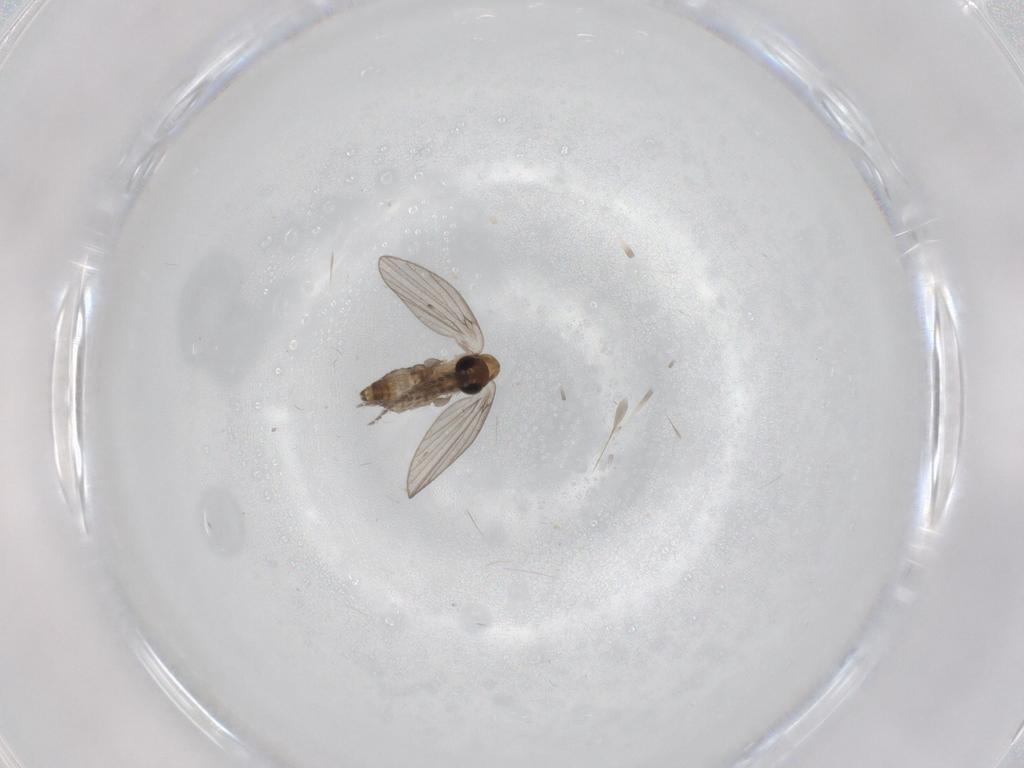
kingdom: Animalia
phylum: Arthropoda
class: Insecta
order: Diptera
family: Psychodidae
